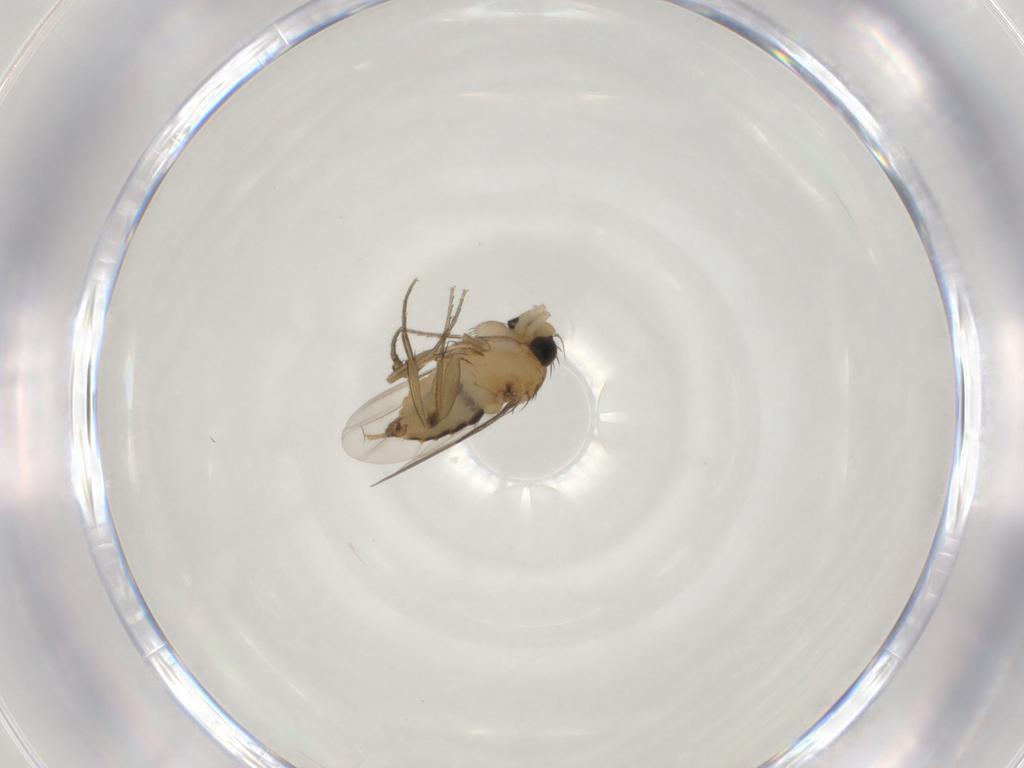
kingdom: Animalia
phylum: Arthropoda
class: Insecta
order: Diptera
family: Phoridae
